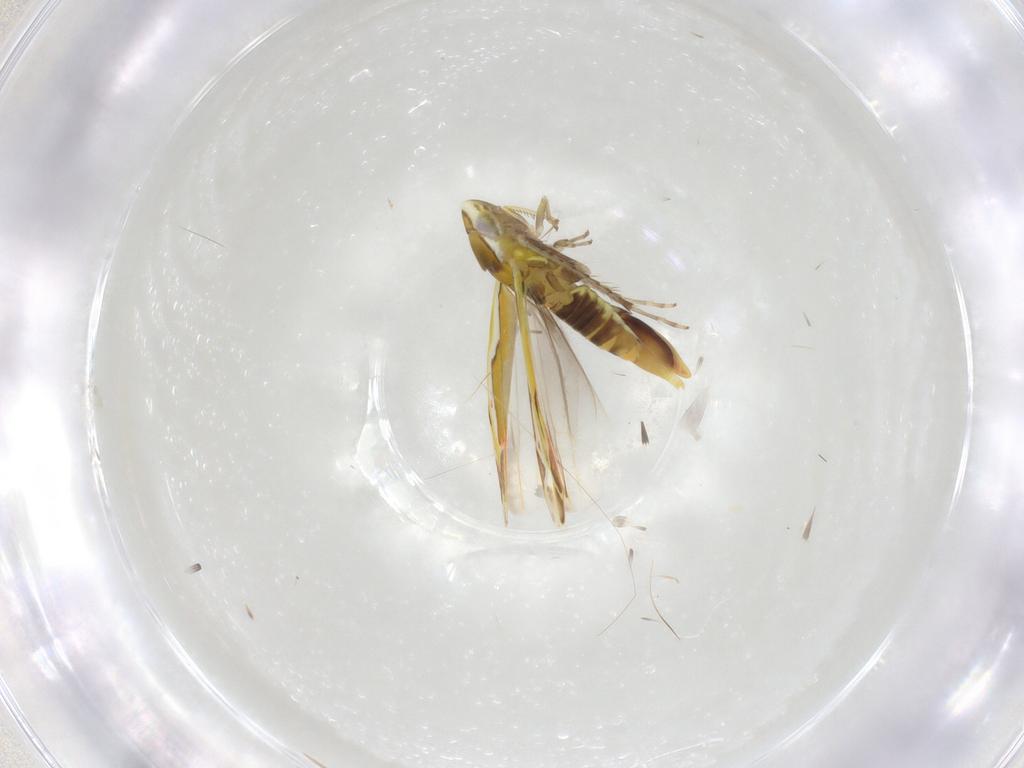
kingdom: Animalia
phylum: Arthropoda
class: Insecta
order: Hemiptera
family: Cicadellidae
